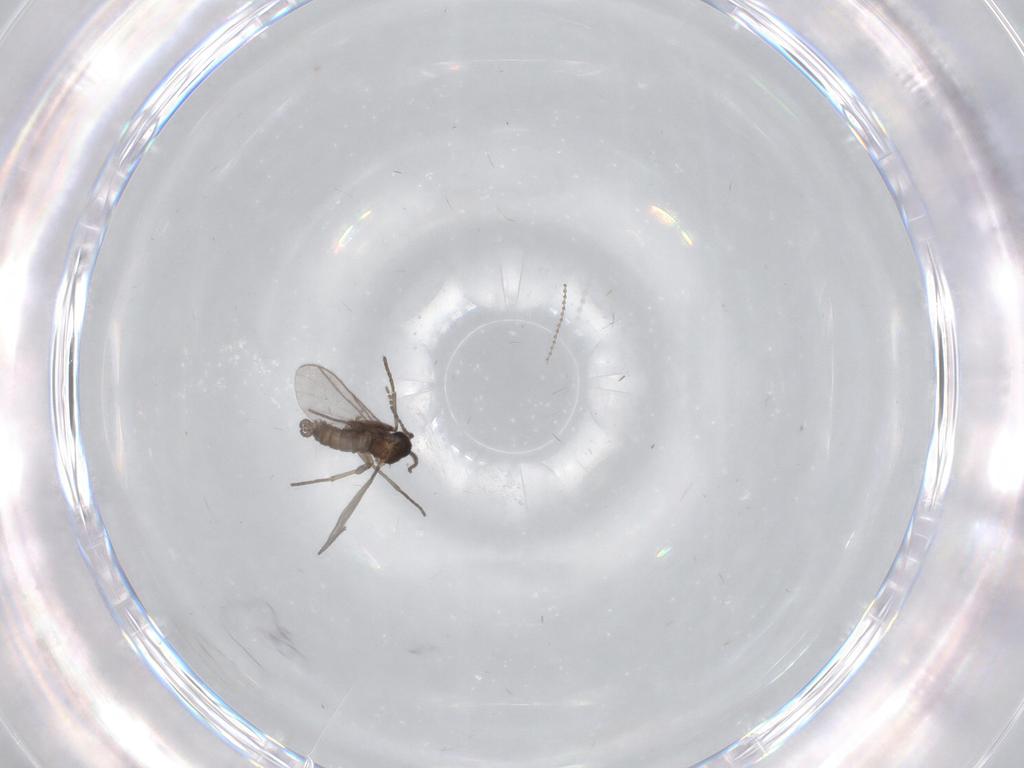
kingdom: Animalia
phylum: Arthropoda
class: Insecta
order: Diptera
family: Cecidomyiidae
